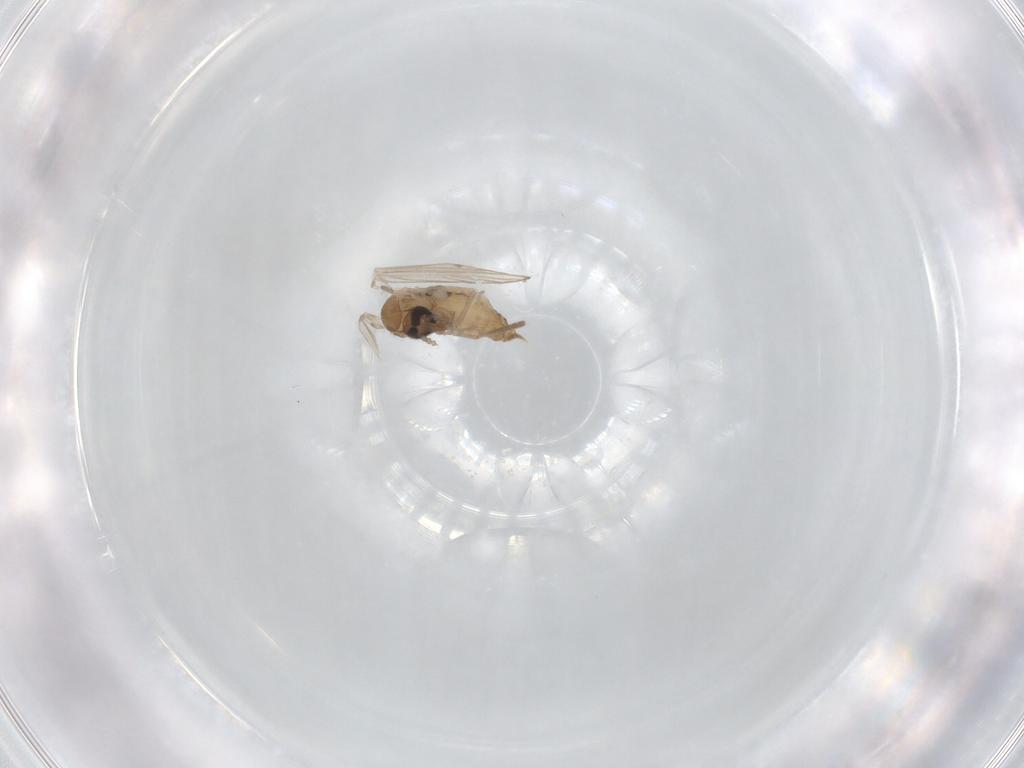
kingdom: Animalia
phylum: Arthropoda
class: Insecta
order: Diptera
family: Psychodidae
